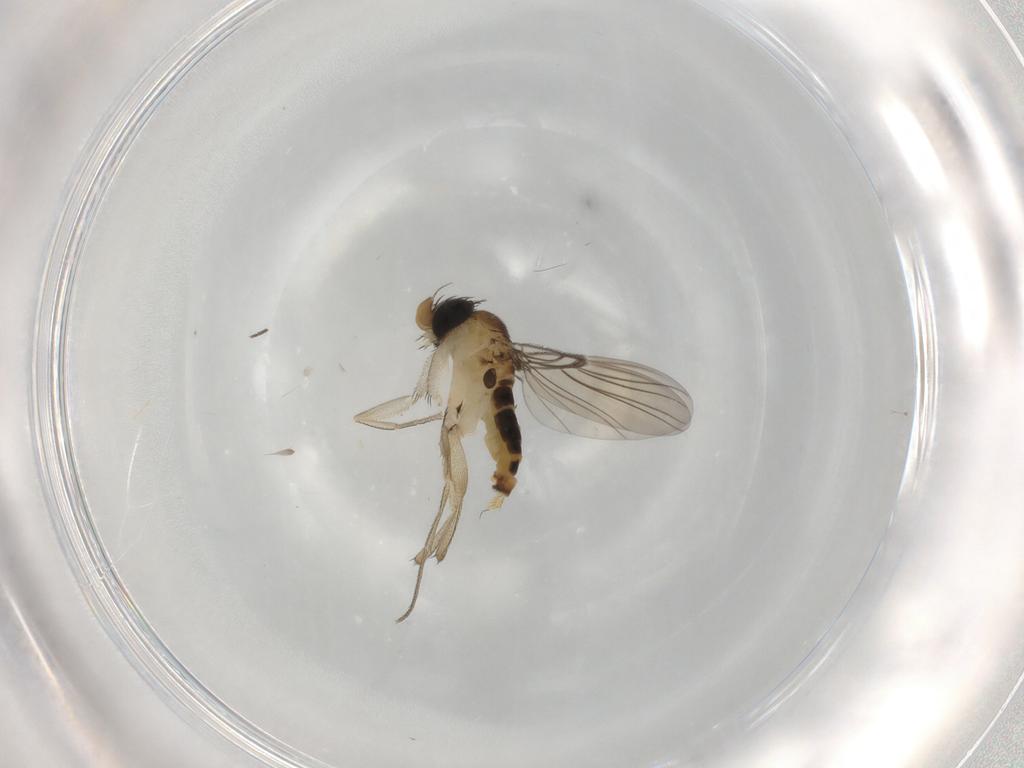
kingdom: Animalia
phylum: Arthropoda
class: Insecta
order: Diptera
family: Phoridae
